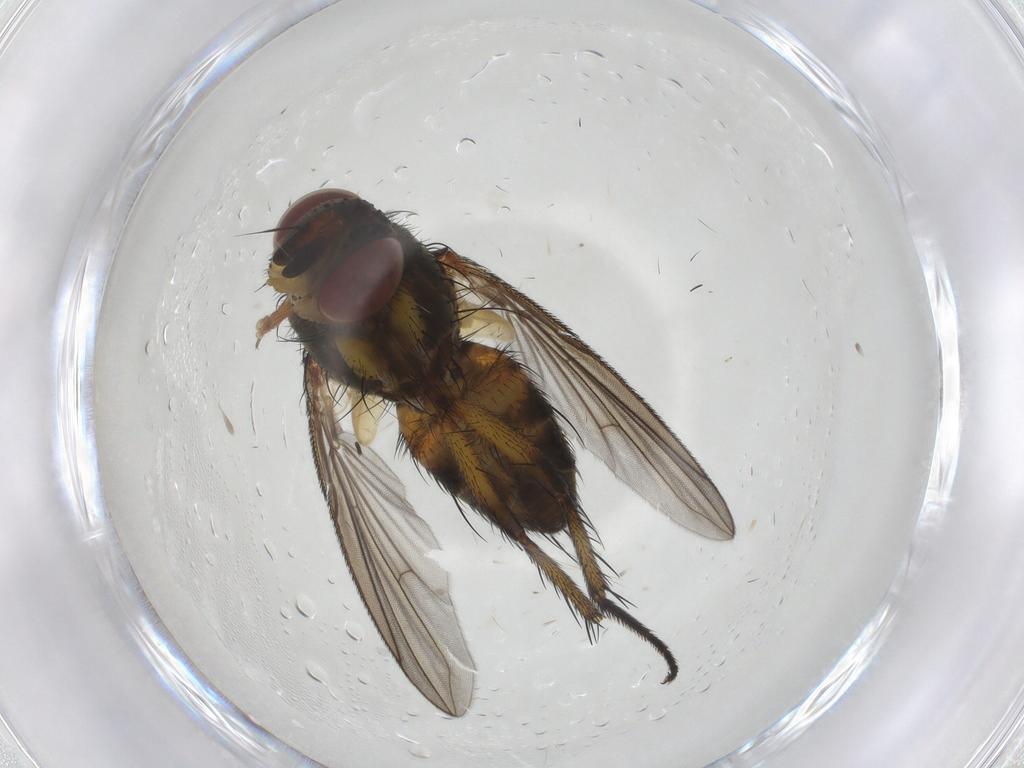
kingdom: Animalia
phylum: Arthropoda
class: Insecta
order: Diptera
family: Tachinidae
